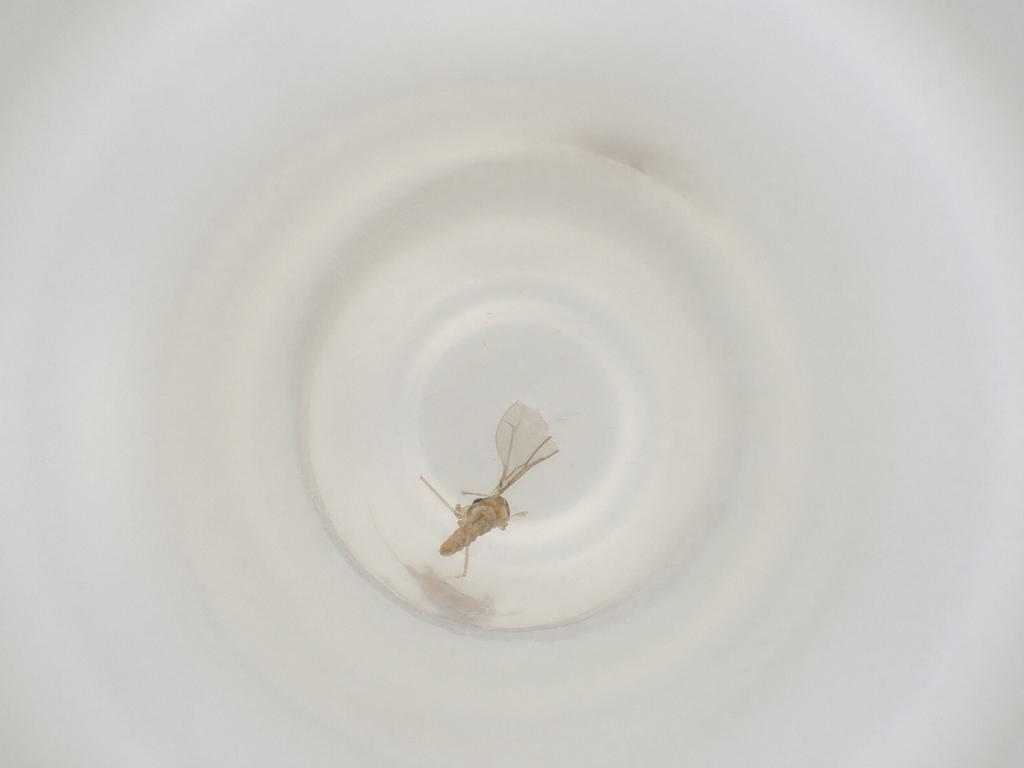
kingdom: Animalia
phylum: Arthropoda
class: Insecta
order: Diptera
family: Cecidomyiidae
